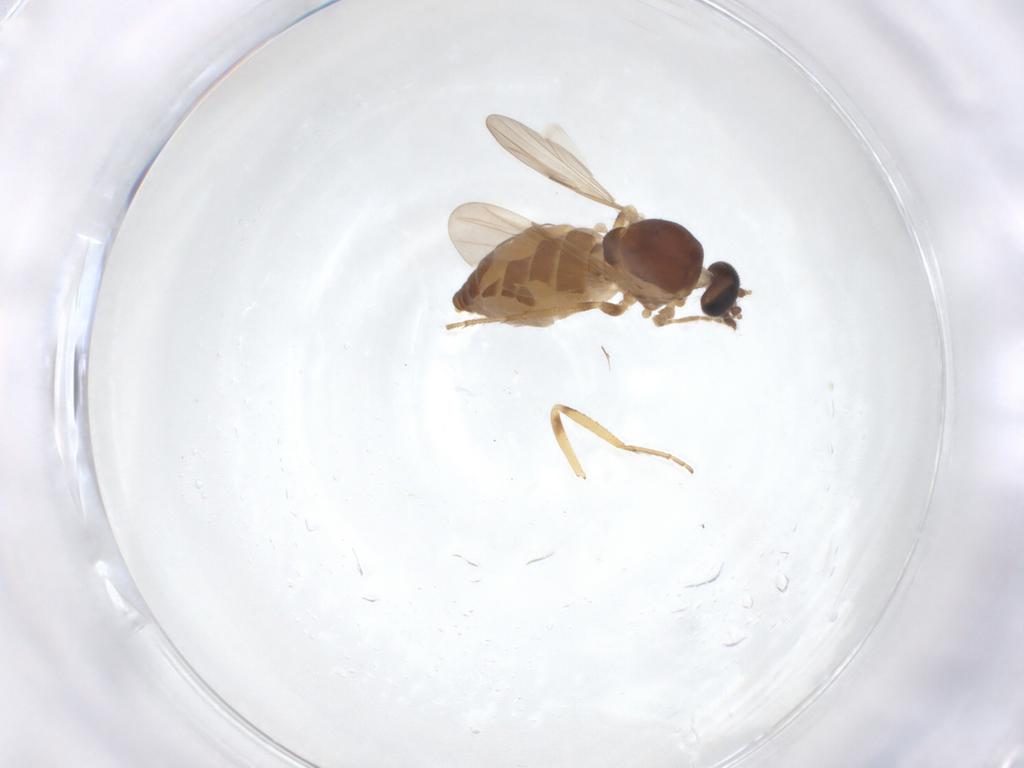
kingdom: Animalia
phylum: Arthropoda
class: Insecta
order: Diptera
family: Ceratopogonidae
